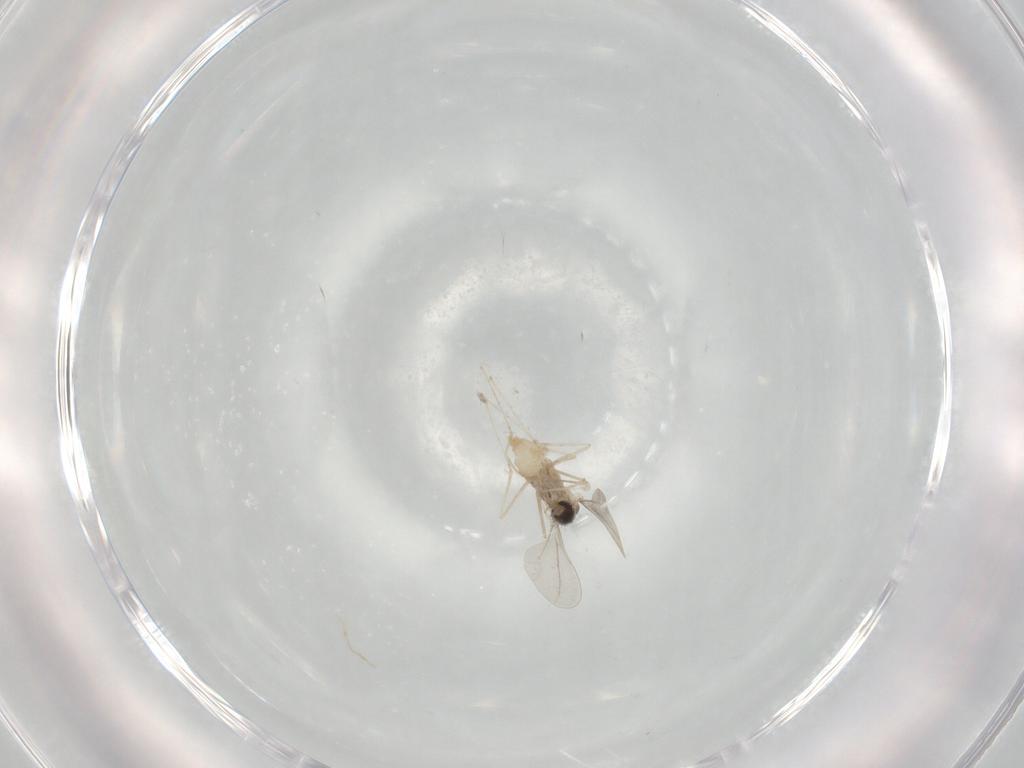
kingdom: Animalia
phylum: Arthropoda
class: Insecta
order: Diptera
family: Cecidomyiidae
